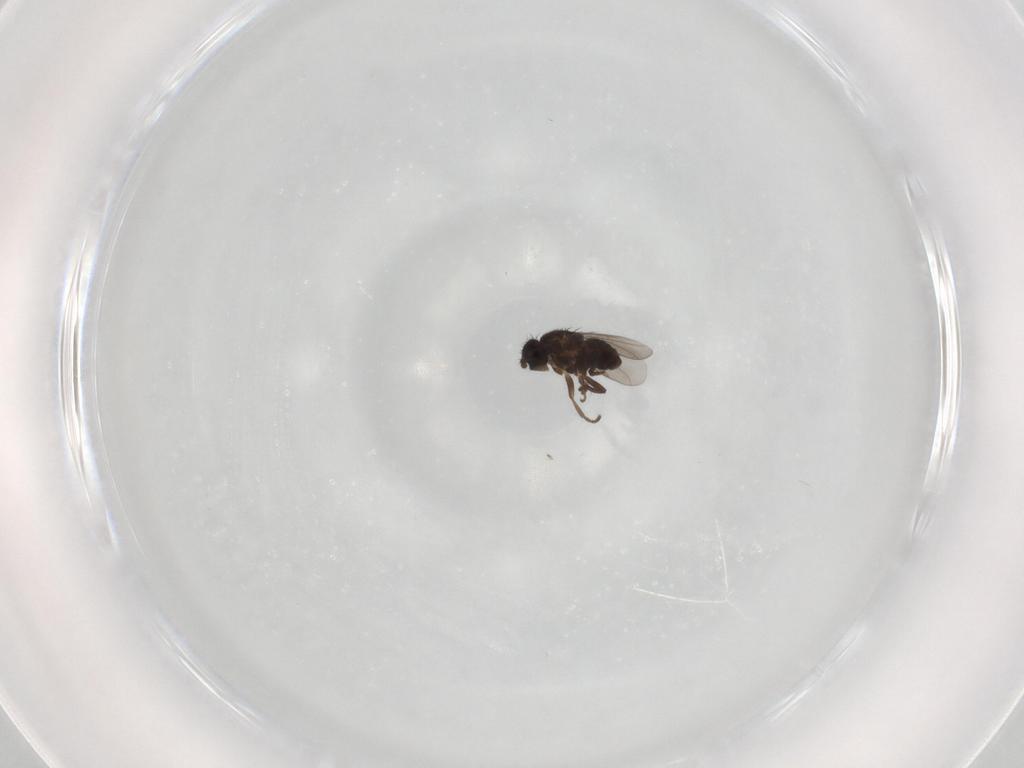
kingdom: Animalia
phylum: Arthropoda
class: Insecta
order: Diptera
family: Sphaeroceridae
